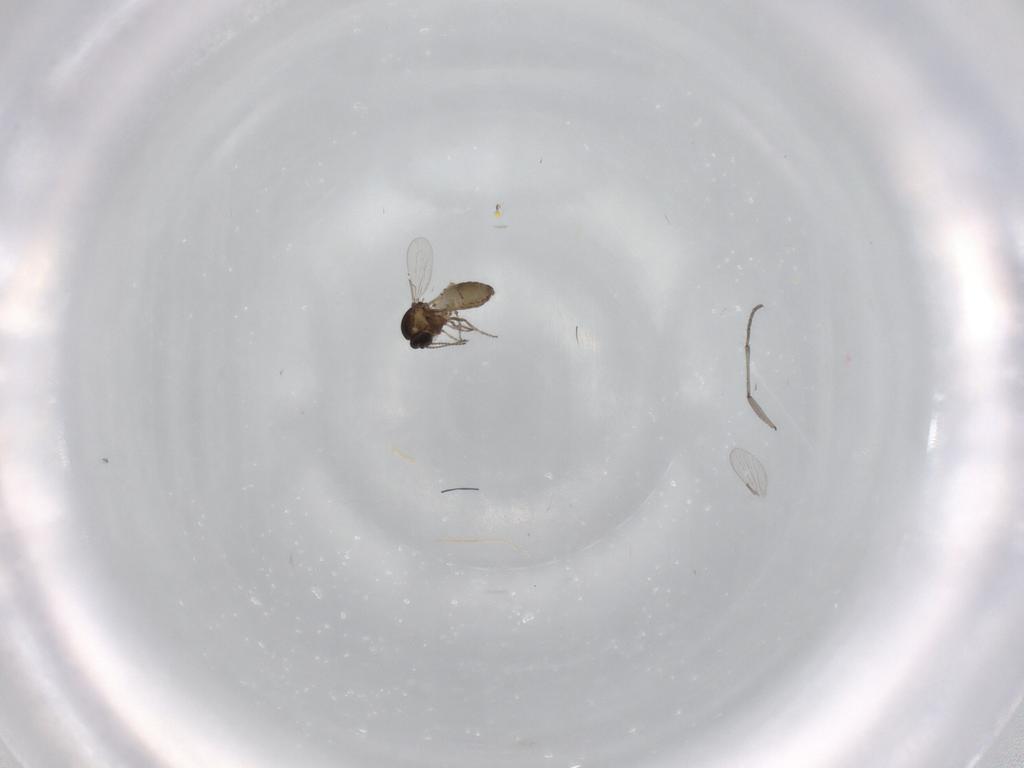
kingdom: Animalia
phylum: Arthropoda
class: Insecta
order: Diptera
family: Ceratopogonidae
